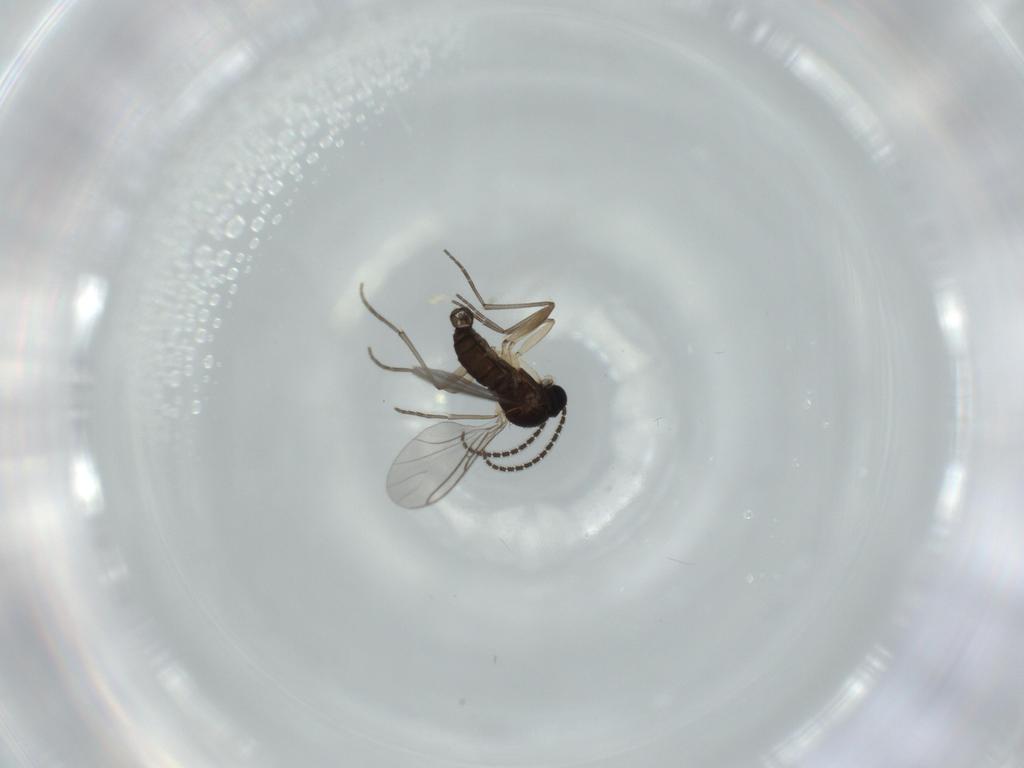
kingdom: Animalia
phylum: Arthropoda
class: Insecta
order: Diptera
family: Sciaridae
